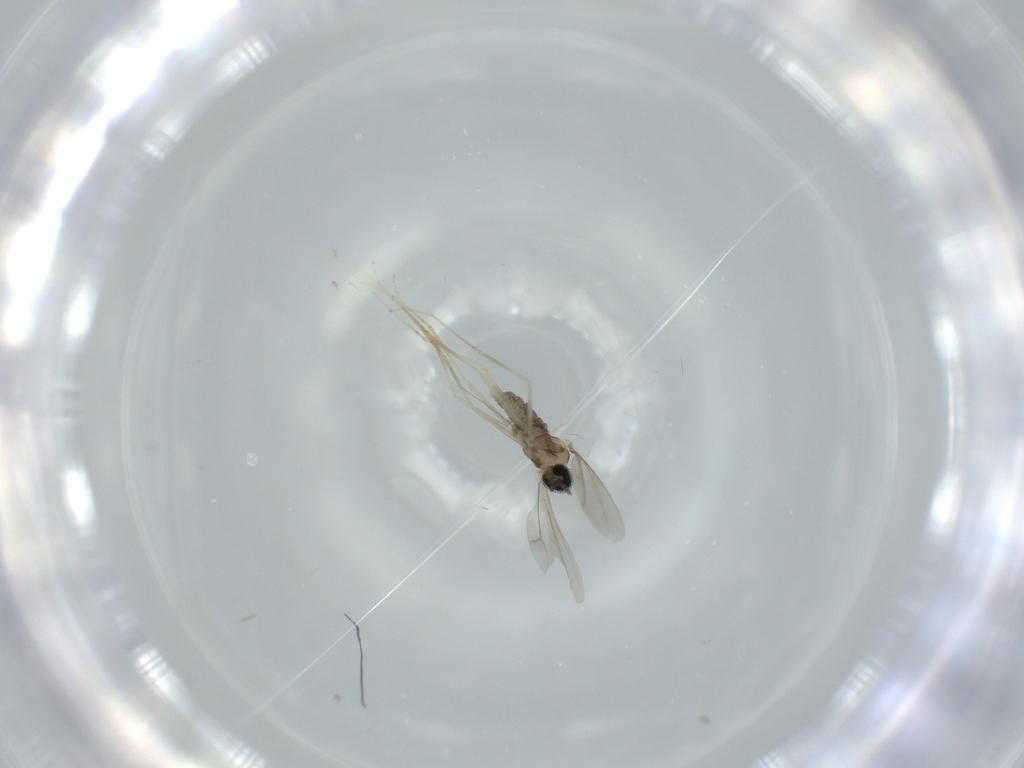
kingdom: Animalia
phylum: Arthropoda
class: Insecta
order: Diptera
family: Cecidomyiidae
